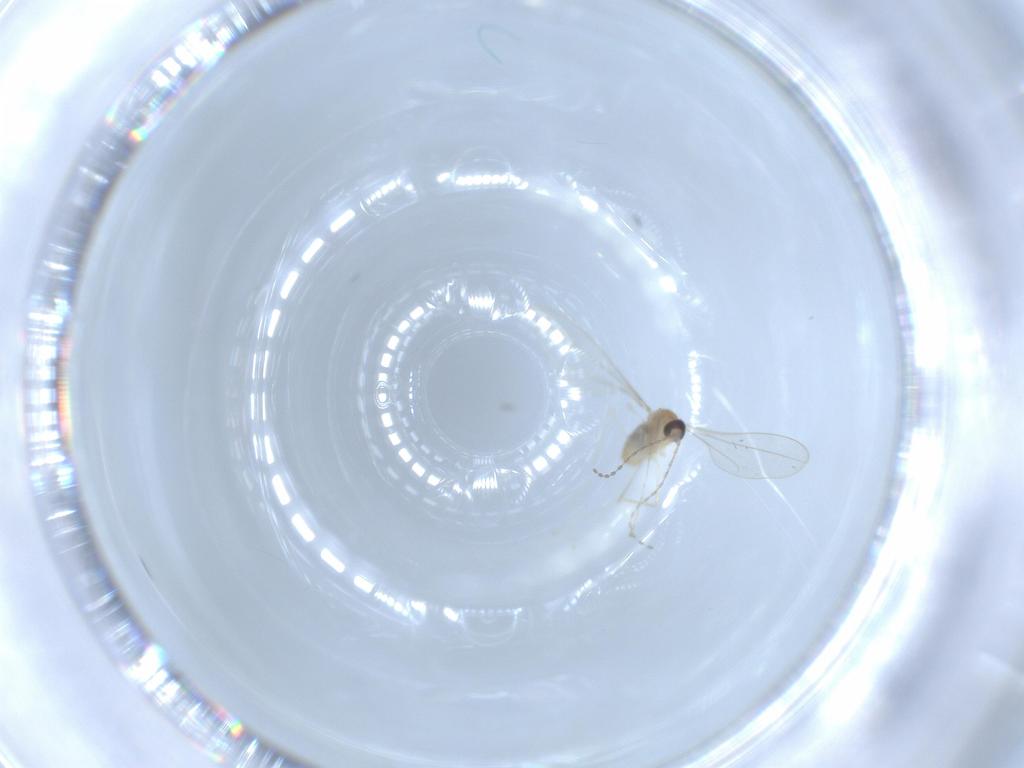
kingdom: Animalia
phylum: Arthropoda
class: Insecta
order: Diptera
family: Cecidomyiidae
